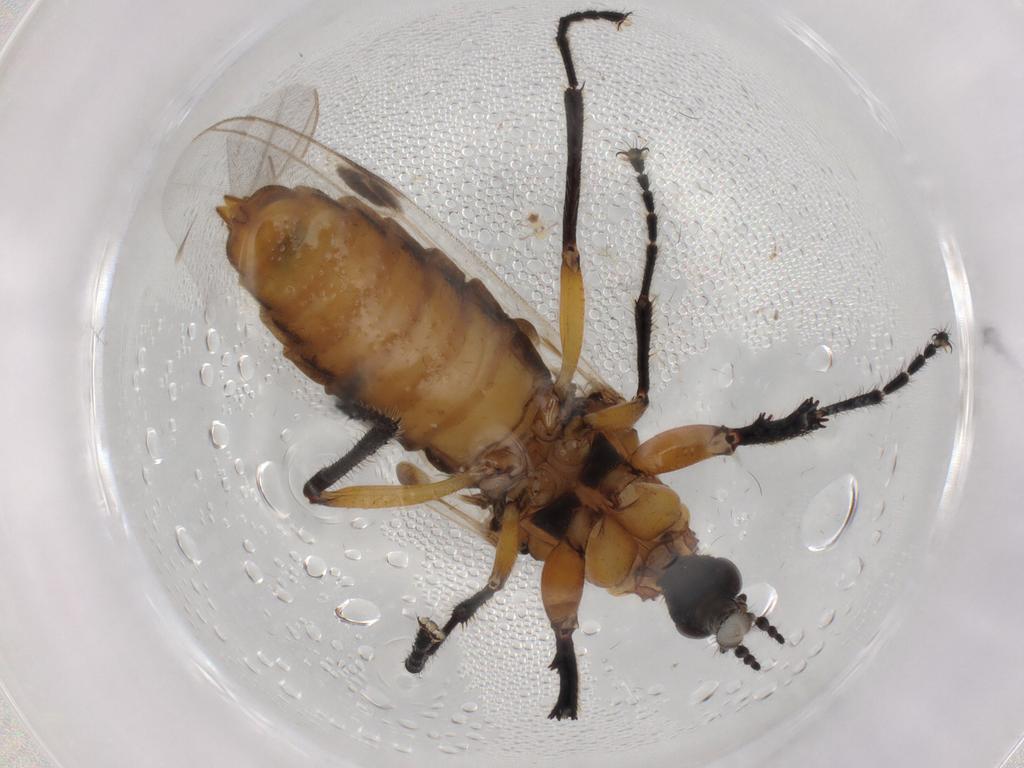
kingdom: Animalia
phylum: Arthropoda
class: Insecta
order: Diptera
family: Bibionidae
